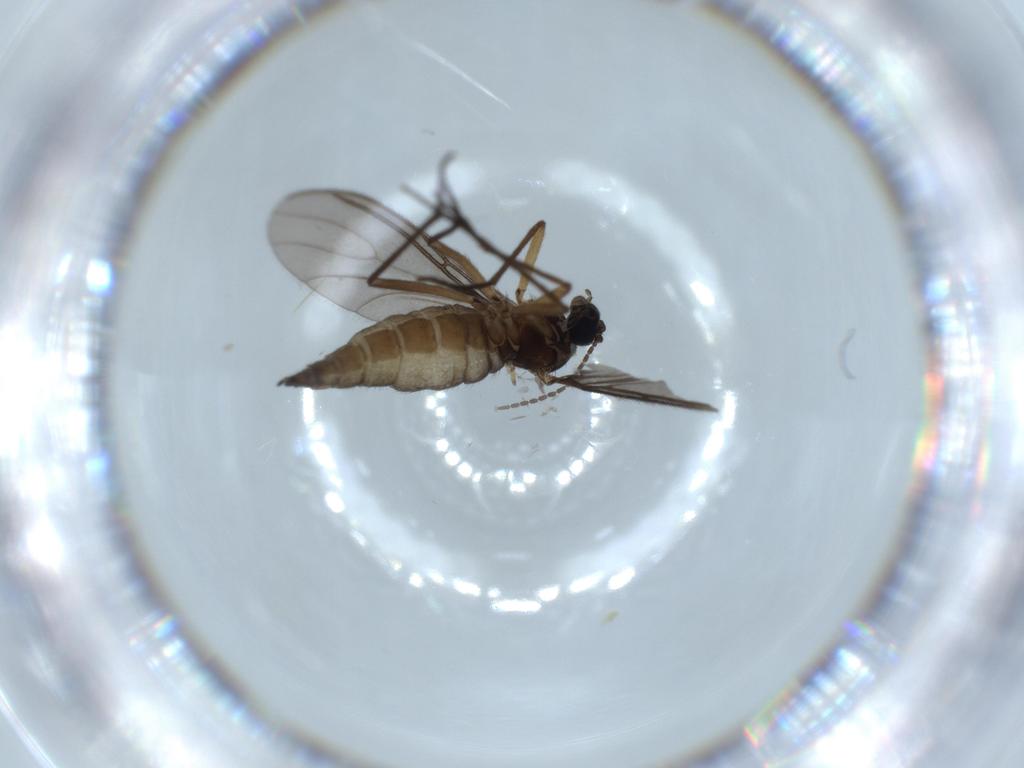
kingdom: Animalia
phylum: Arthropoda
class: Insecta
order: Diptera
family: Sciaridae
